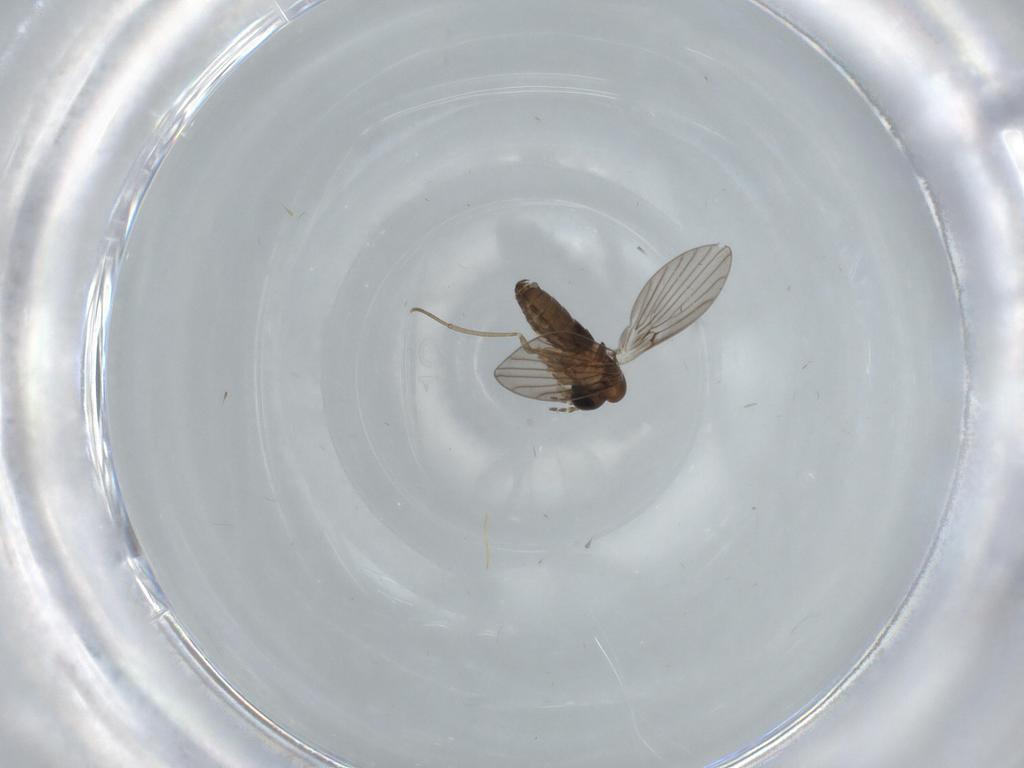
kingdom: Animalia
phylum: Arthropoda
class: Insecta
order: Diptera
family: Psychodidae
